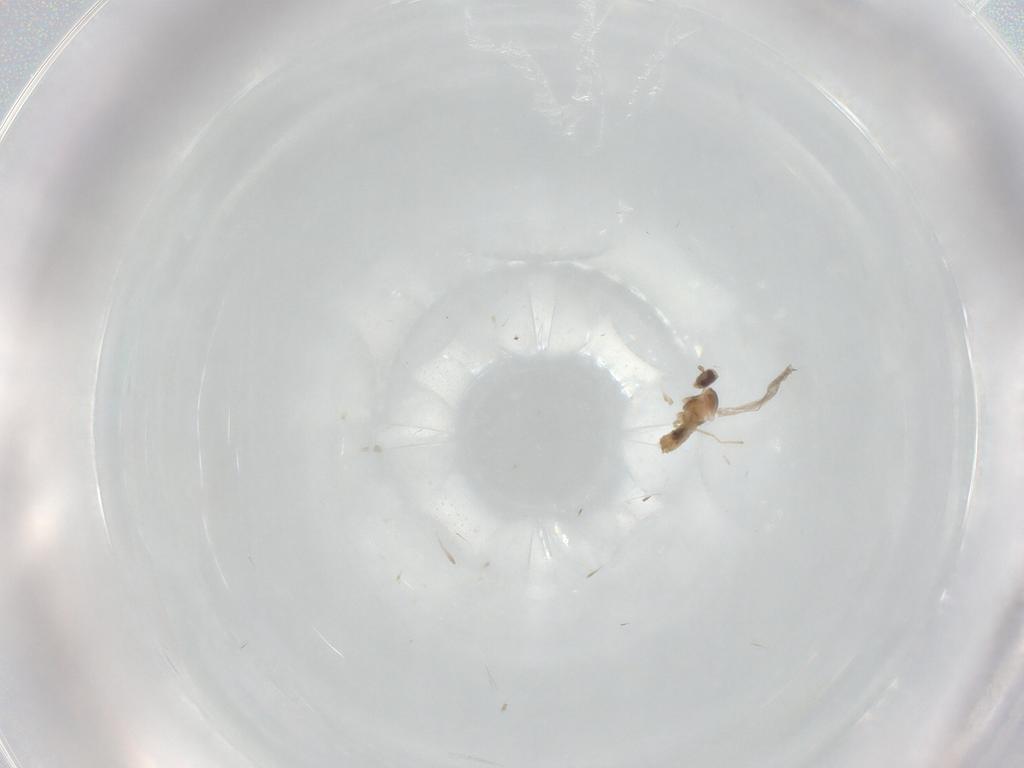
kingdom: Animalia
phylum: Arthropoda
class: Insecta
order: Diptera
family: Cecidomyiidae
